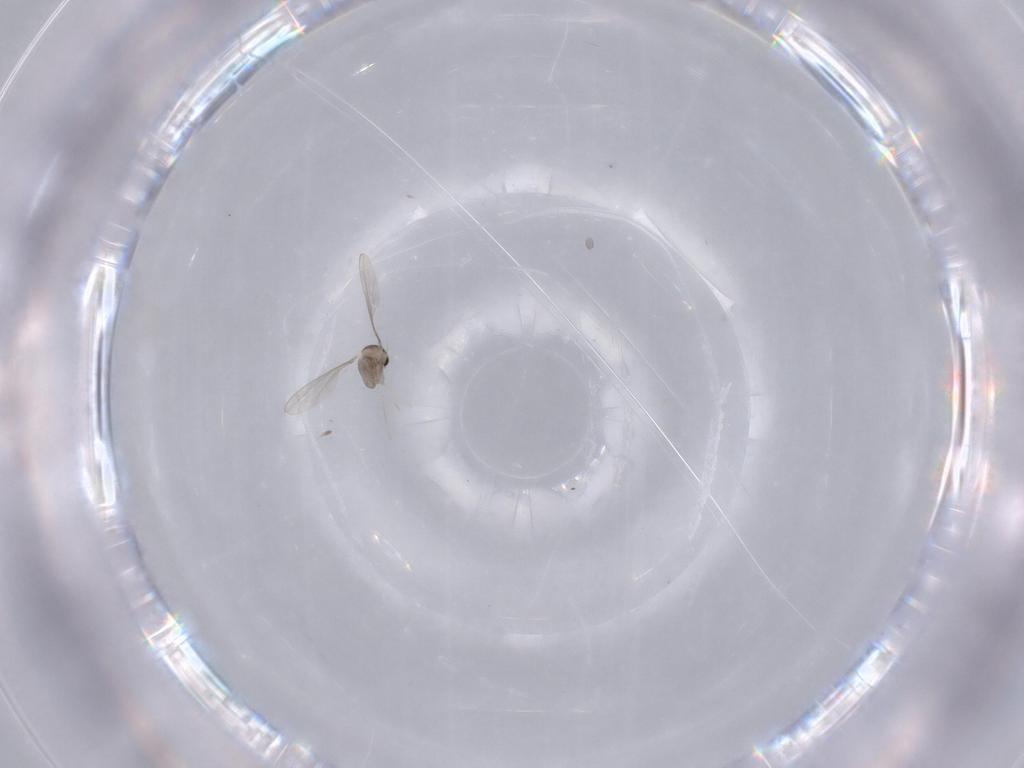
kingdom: Animalia
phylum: Arthropoda
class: Insecta
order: Diptera
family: Cecidomyiidae
